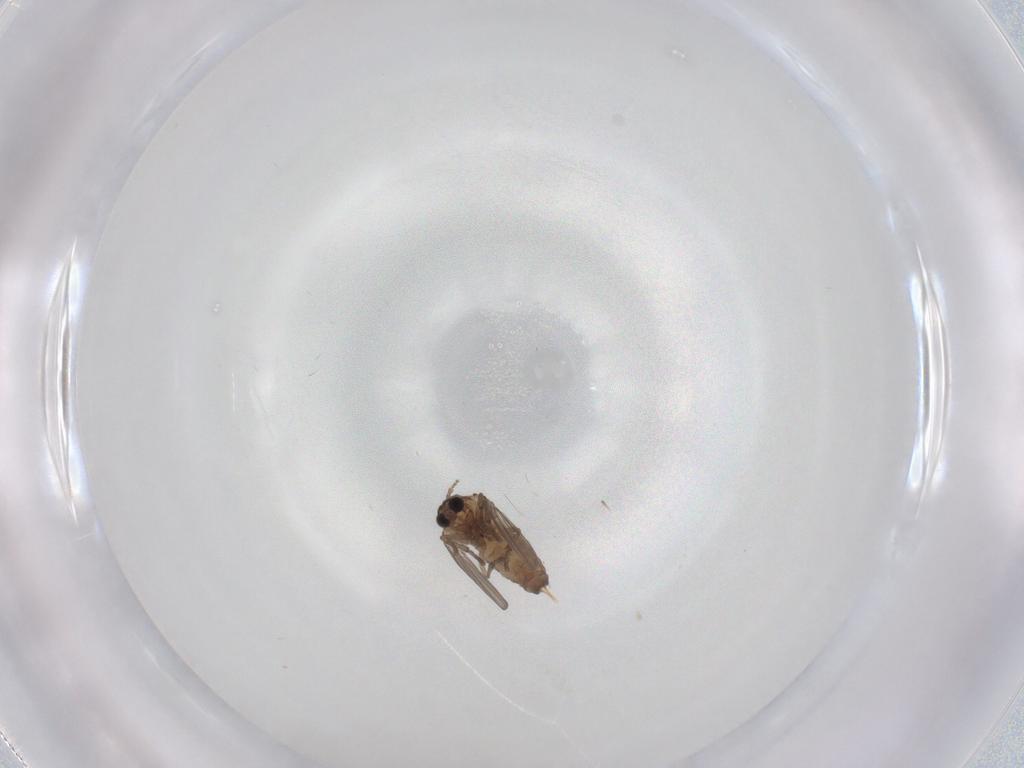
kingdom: Animalia
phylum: Arthropoda
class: Insecta
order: Diptera
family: Psychodidae
